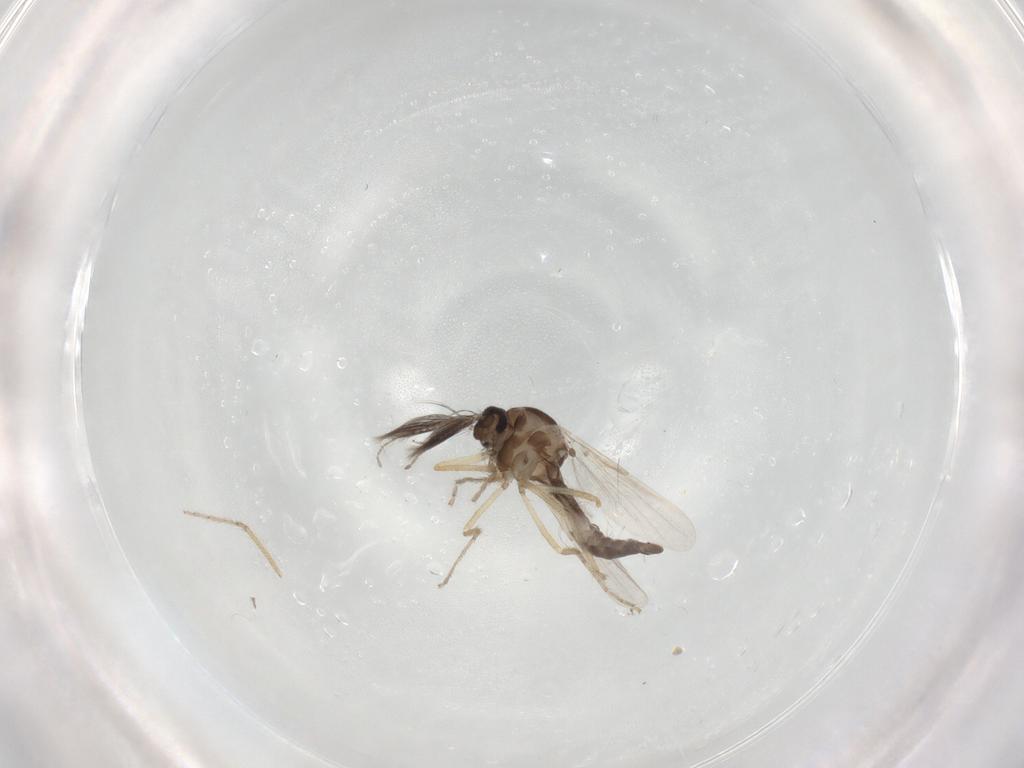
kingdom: Animalia
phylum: Arthropoda
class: Insecta
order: Diptera
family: Ceratopogonidae
